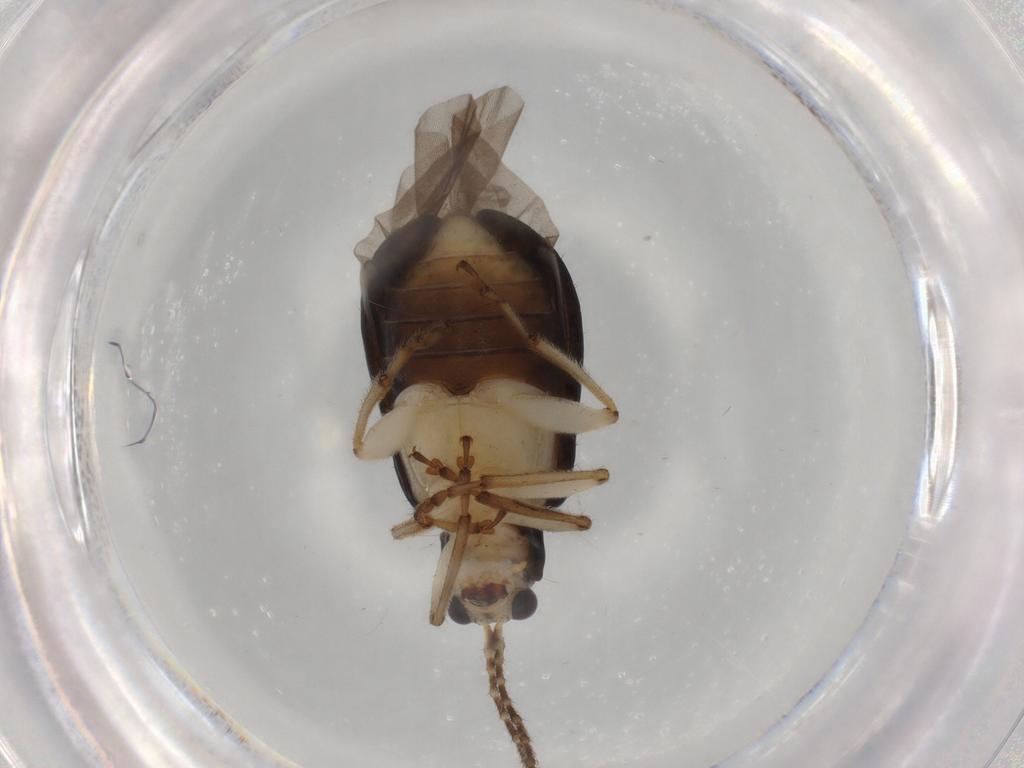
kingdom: Animalia
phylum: Arthropoda
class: Insecta
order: Coleoptera
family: Chrysomelidae
